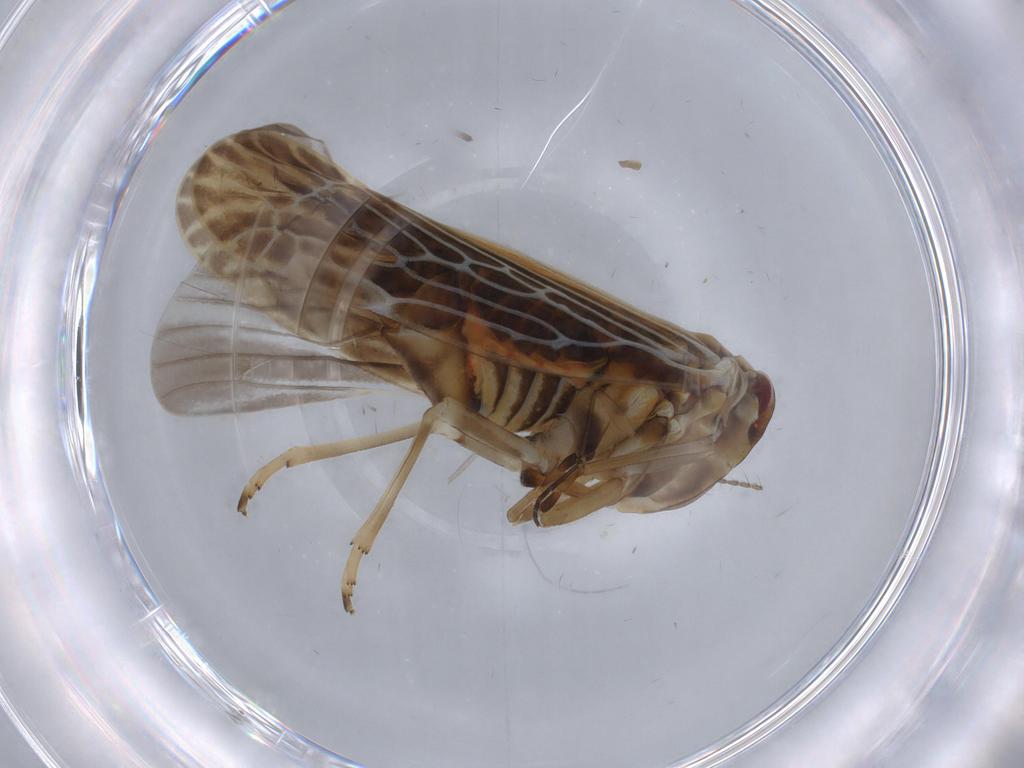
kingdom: Animalia
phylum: Arthropoda
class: Insecta
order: Hemiptera
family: Derbidae
